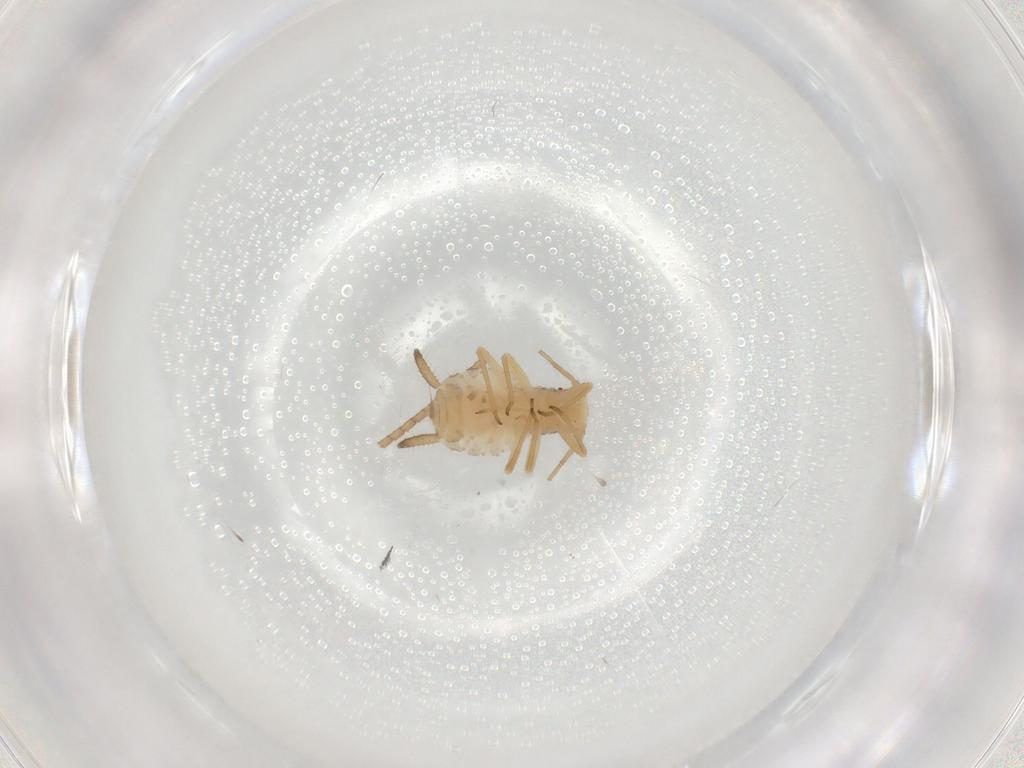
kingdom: Animalia
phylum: Arthropoda
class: Insecta
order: Hemiptera
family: Aphididae
